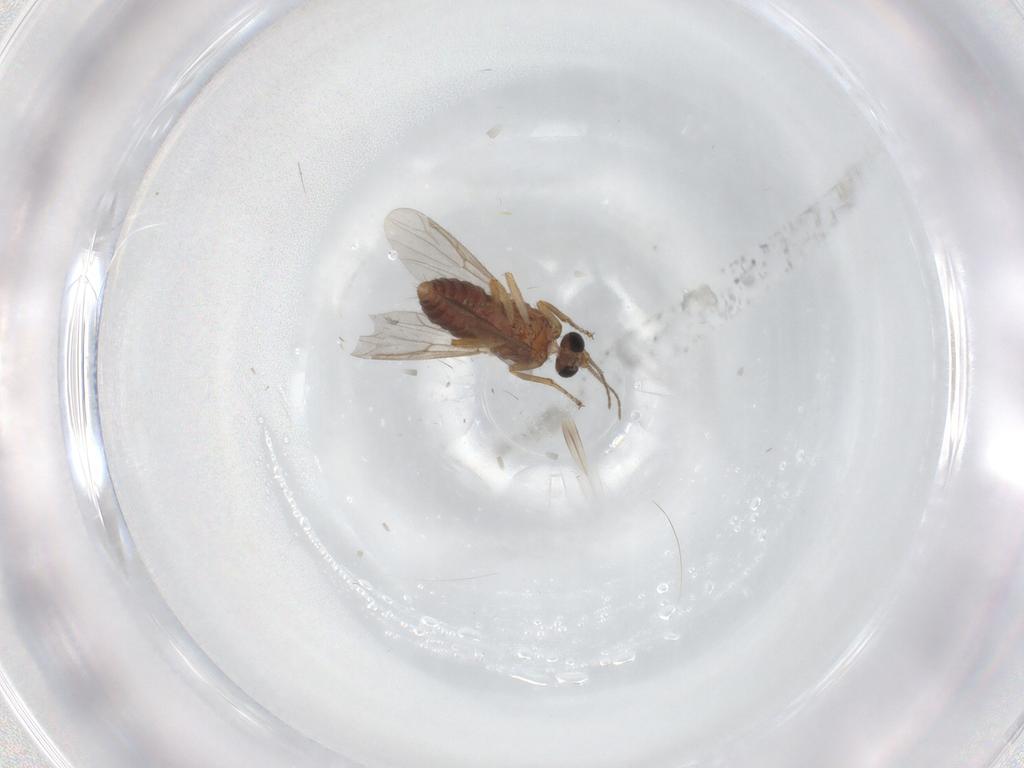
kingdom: Animalia
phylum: Arthropoda
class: Insecta
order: Diptera
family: Ceratopogonidae
